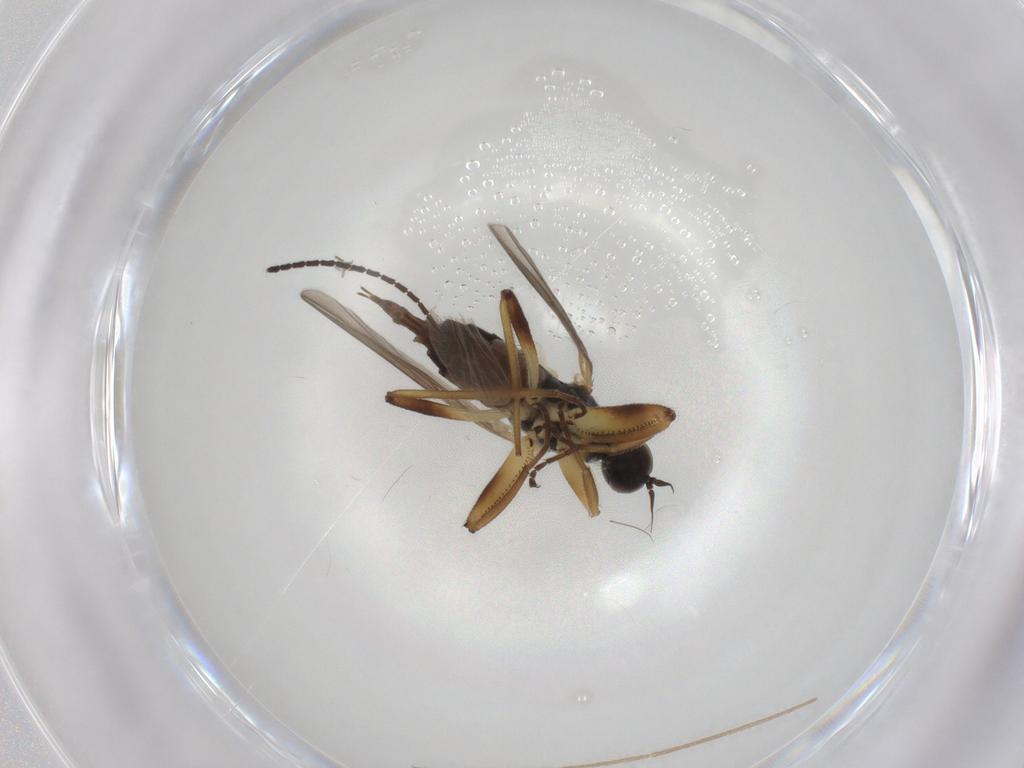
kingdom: Animalia
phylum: Arthropoda
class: Insecta
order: Diptera
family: Hybotidae
